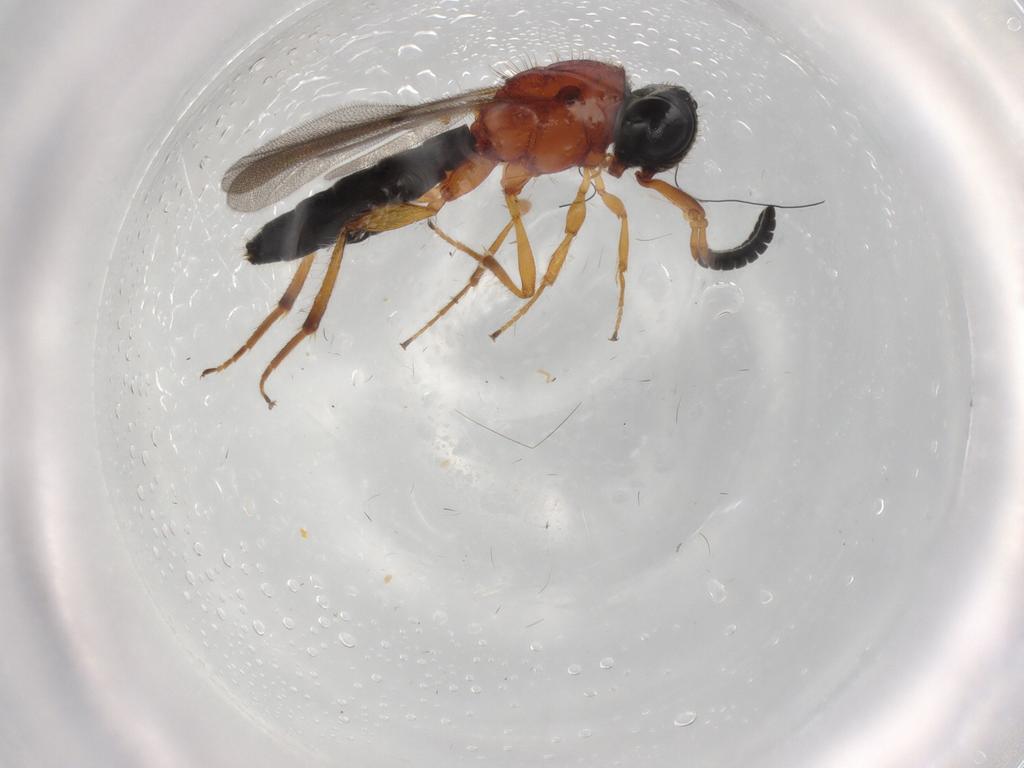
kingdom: Animalia
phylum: Arthropoda
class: Insecta
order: Hymenoptera
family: Scelionidae
